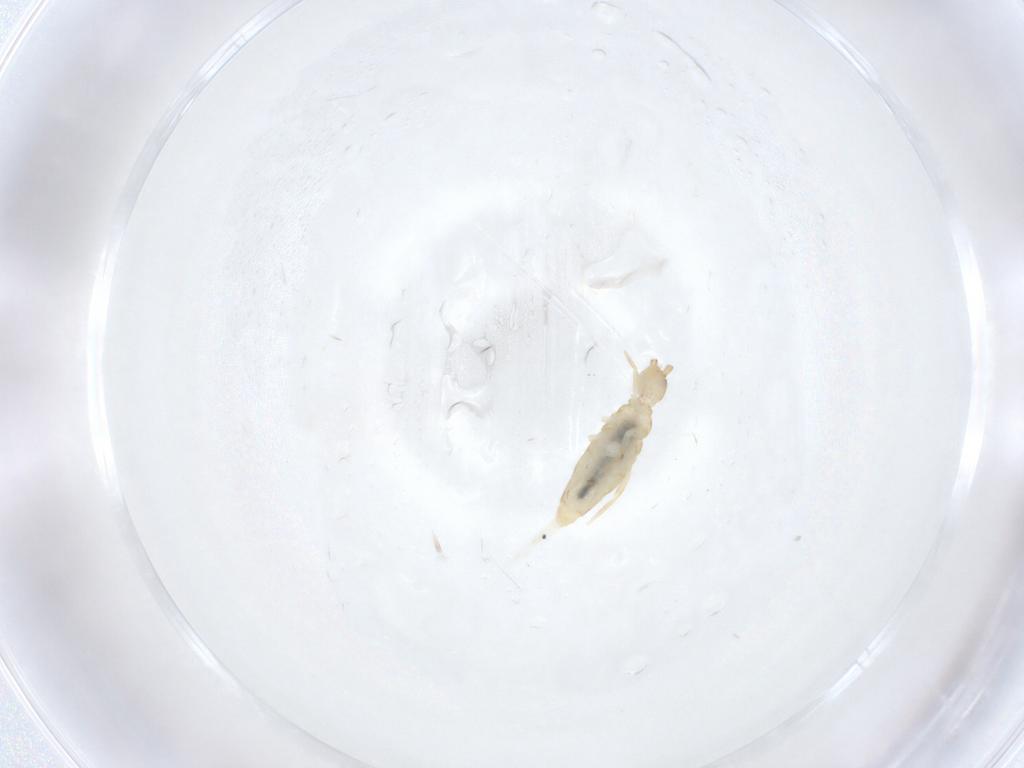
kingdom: Animalia
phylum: Arthropoda
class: Collembola
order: Entomobryomorpha
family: Entomobryidae
